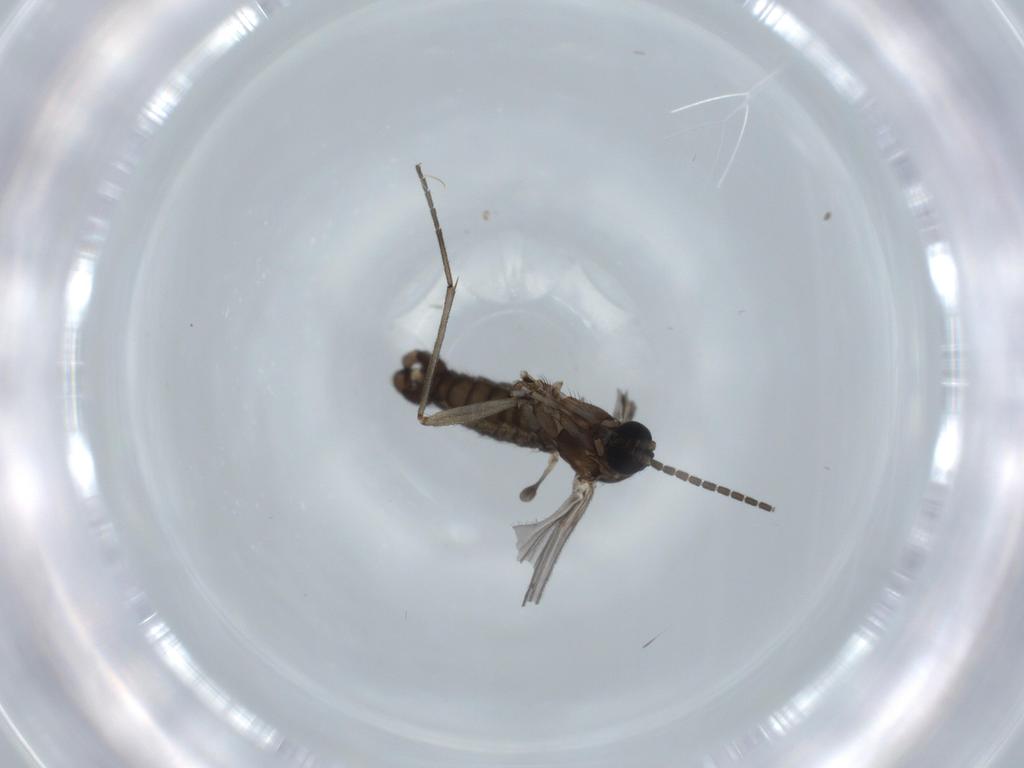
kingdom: Animalia
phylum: Arthropoda
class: Insecta
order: Diptera
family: Sciaridae
